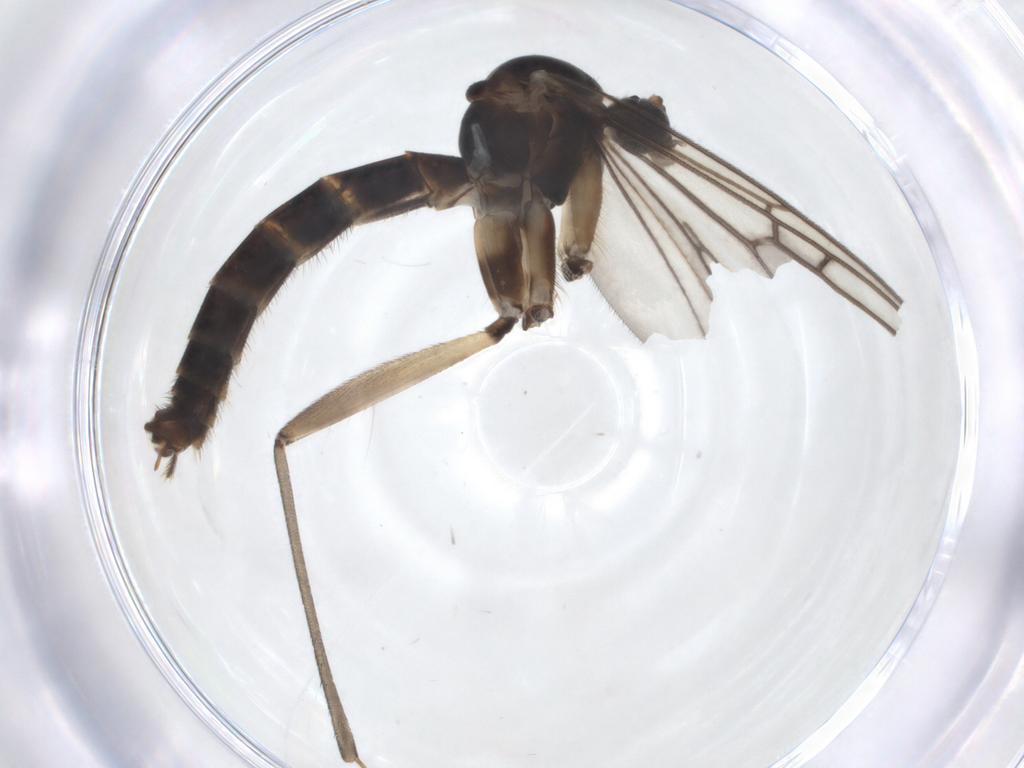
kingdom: Animalia
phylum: Arthropoda
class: Insecta
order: Diptera
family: Mycetophilidae
